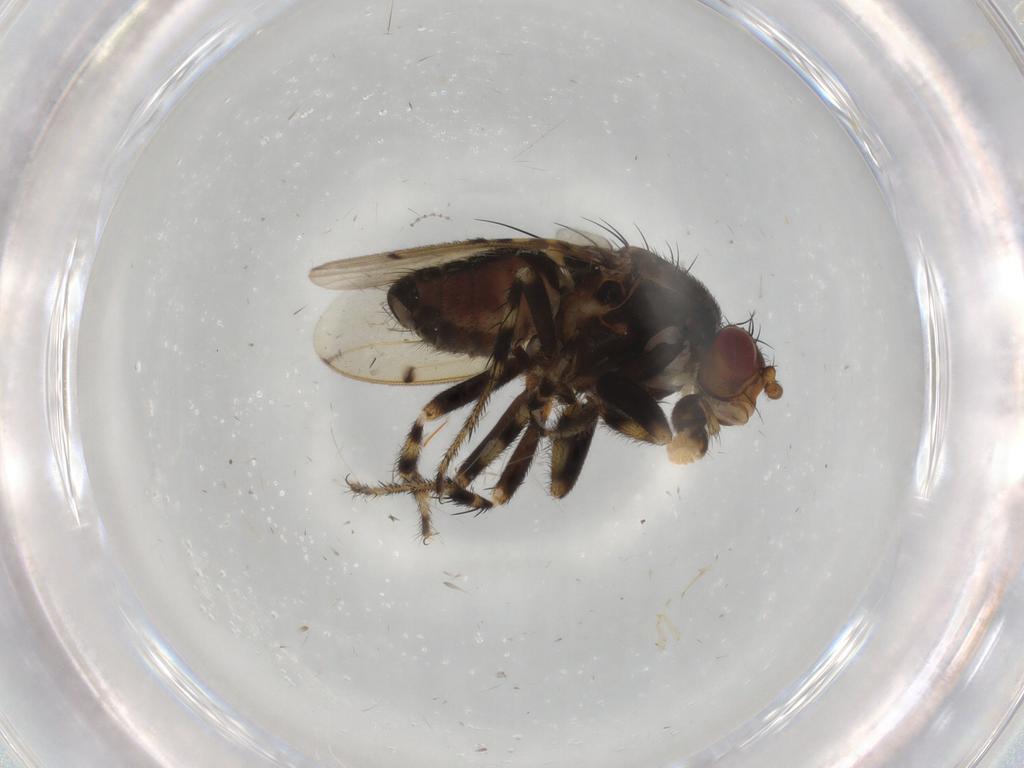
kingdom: Animalia
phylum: Arthropoda
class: Insecta
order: Diptera
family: Sphaeroceridae
